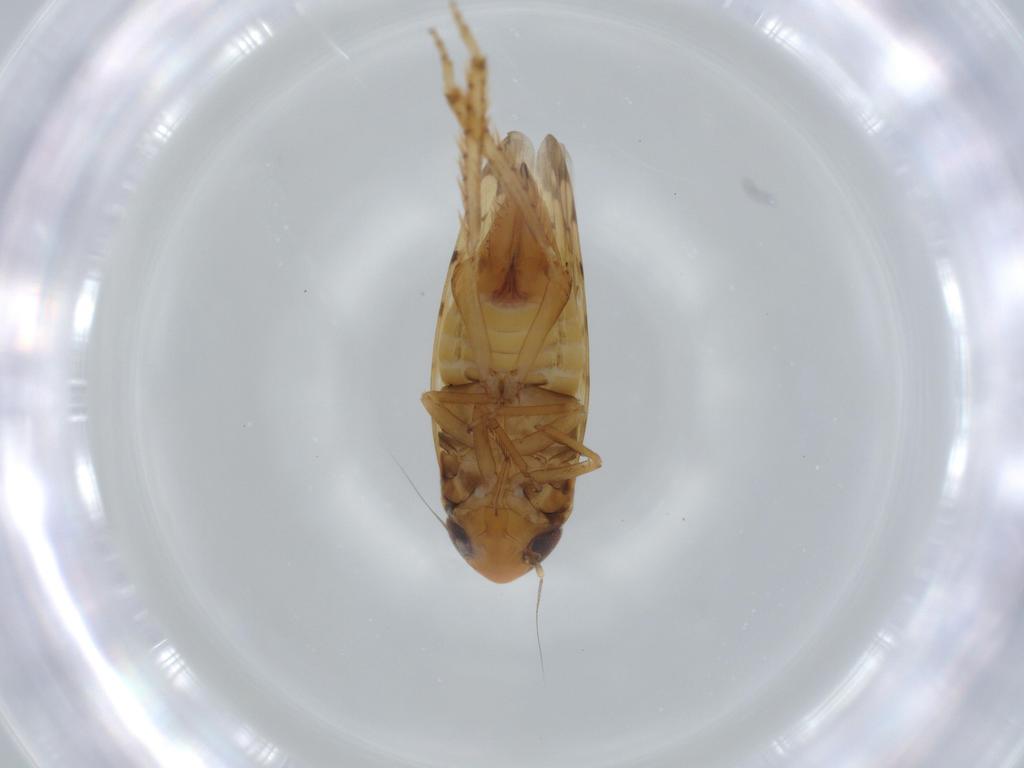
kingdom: Animalia
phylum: Arthropoda
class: Insecta
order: Hemiptera
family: Cicadellidae
